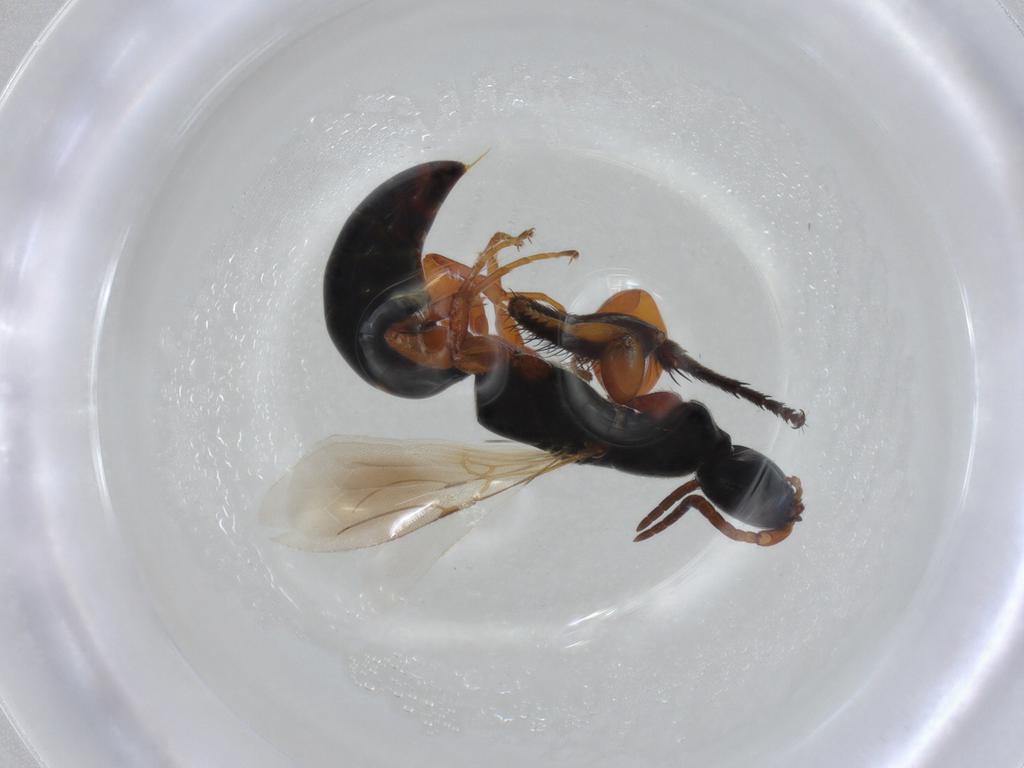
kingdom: Animalia
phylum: Arthropoda
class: Insecta
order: Hymenoptera
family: Bethylidae
